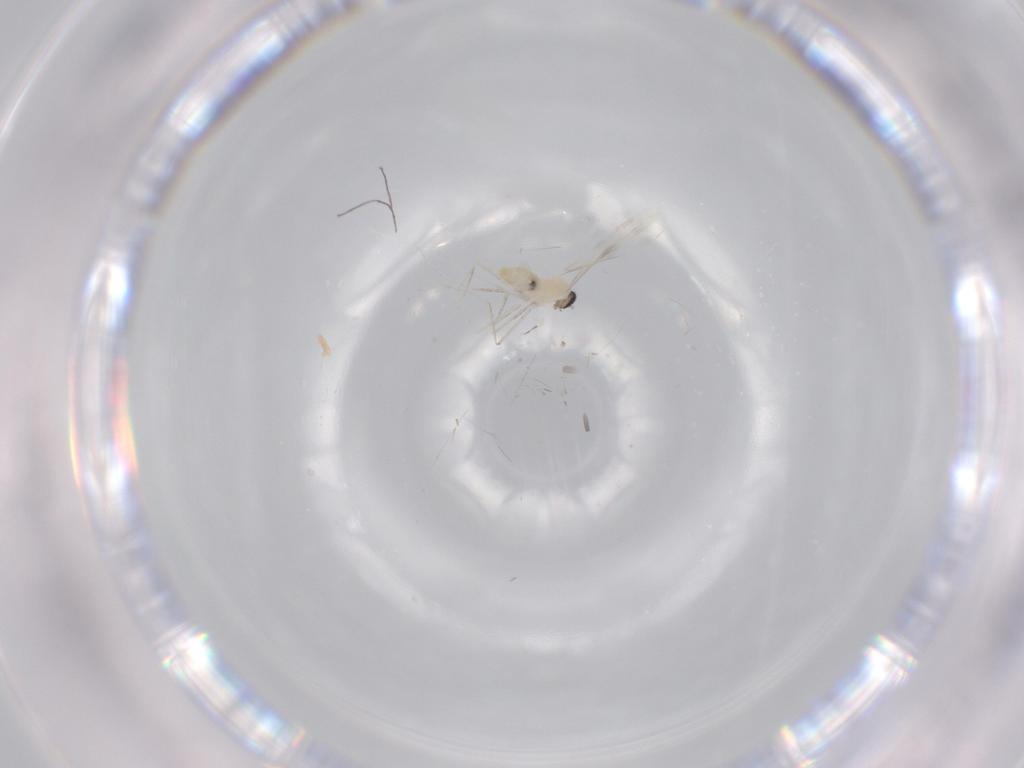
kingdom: Animalia
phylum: Arthropoda
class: Insecta
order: Diptera
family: Cecidomyiidae
